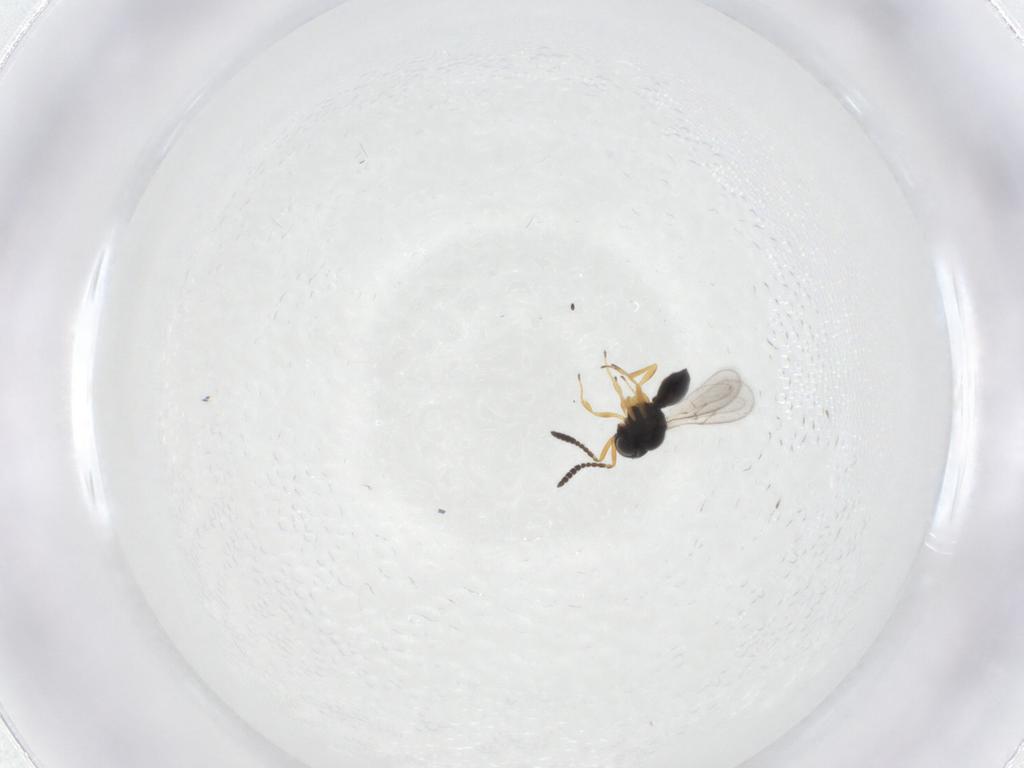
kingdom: Animalia
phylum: Arthropoda
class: Insecta
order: Hymenoptera
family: Scelionidae
